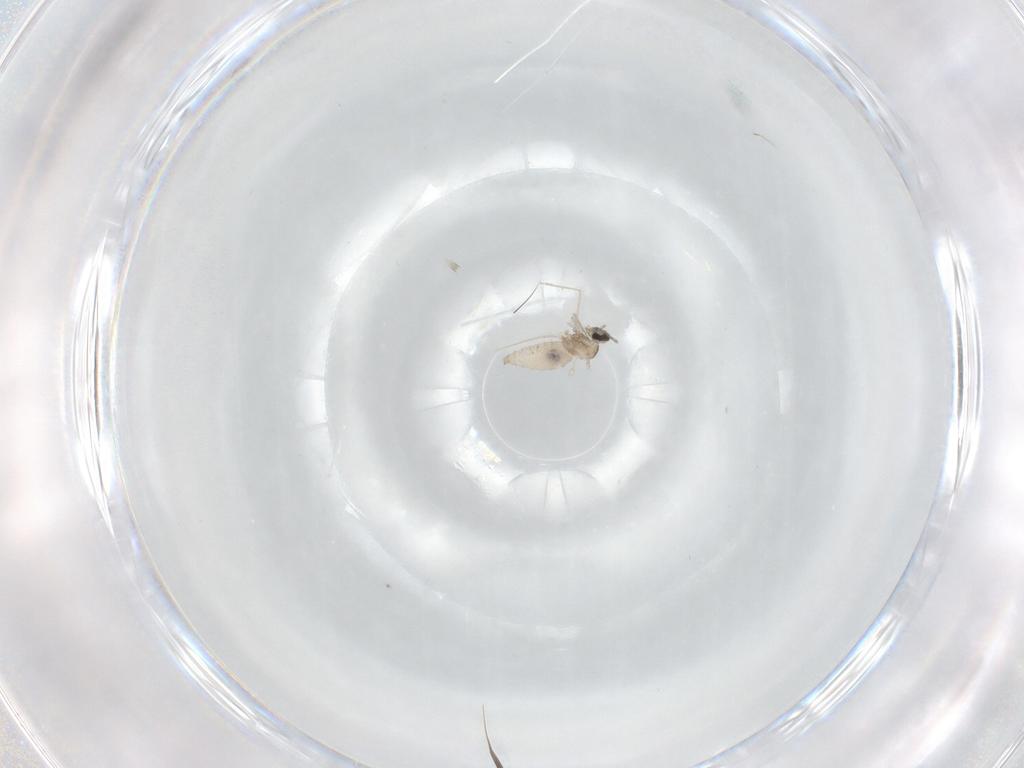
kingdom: Animalia
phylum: Arthropoda
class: Insecta
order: Diptera
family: Cecidomyiidae
